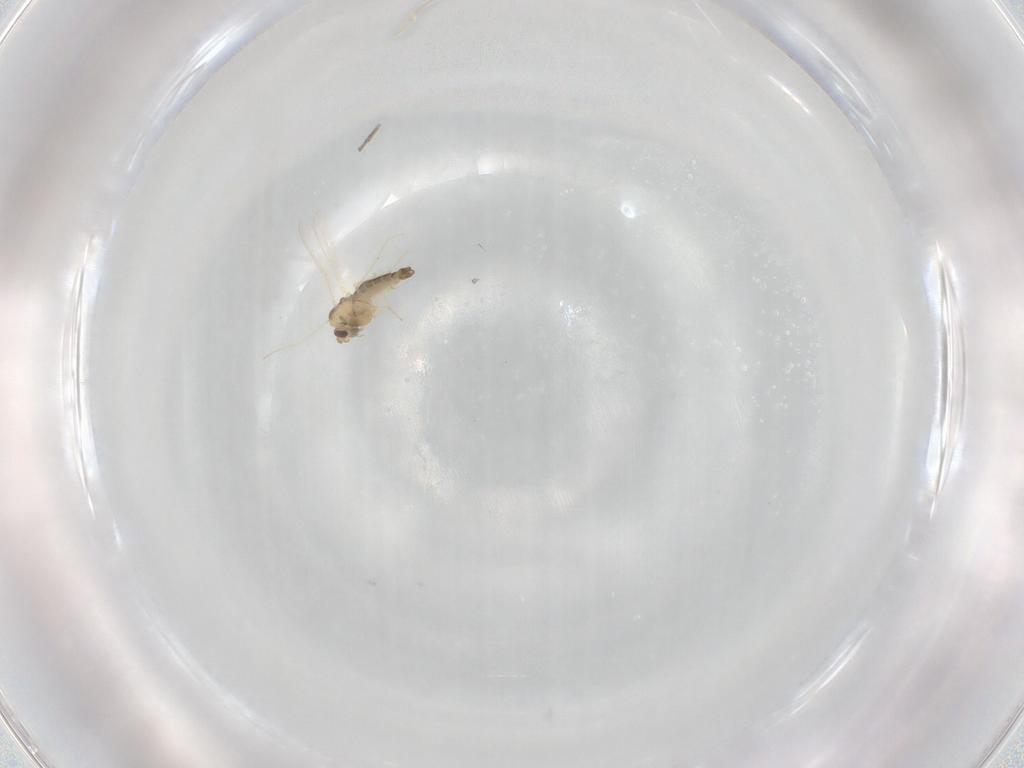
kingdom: Animalia
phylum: Arthropoda
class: Insecta
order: Diptera
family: Chironomidae
